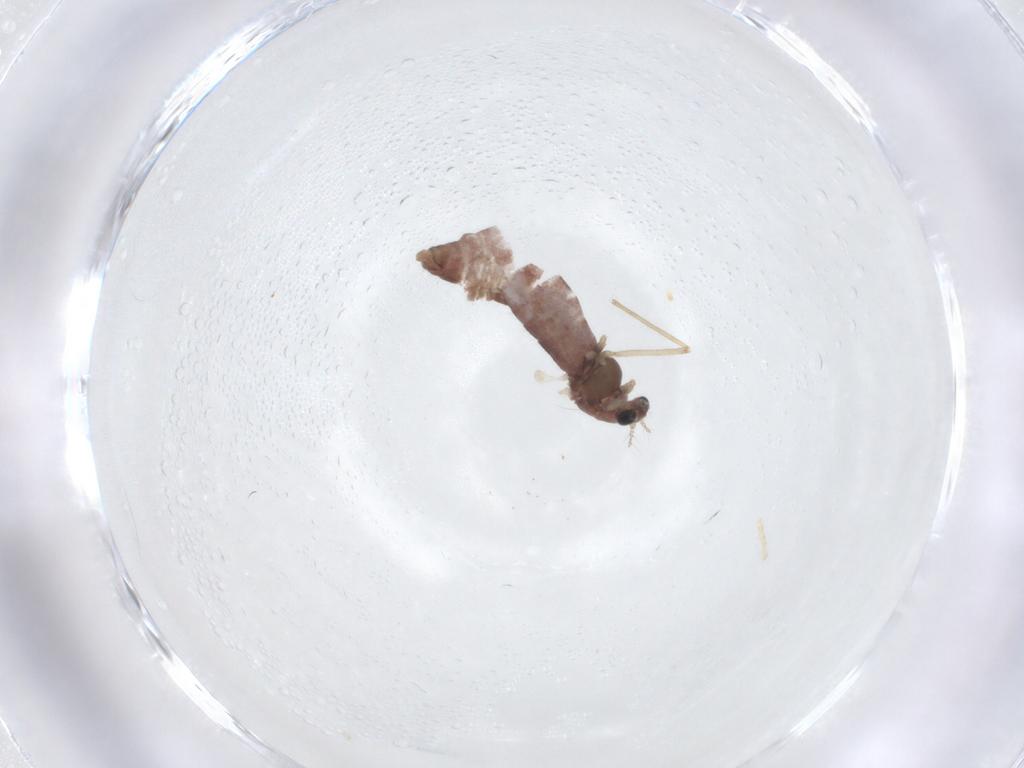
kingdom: Animalia
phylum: Arthropoda
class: Insecta
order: Diptera
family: Chironomidae
